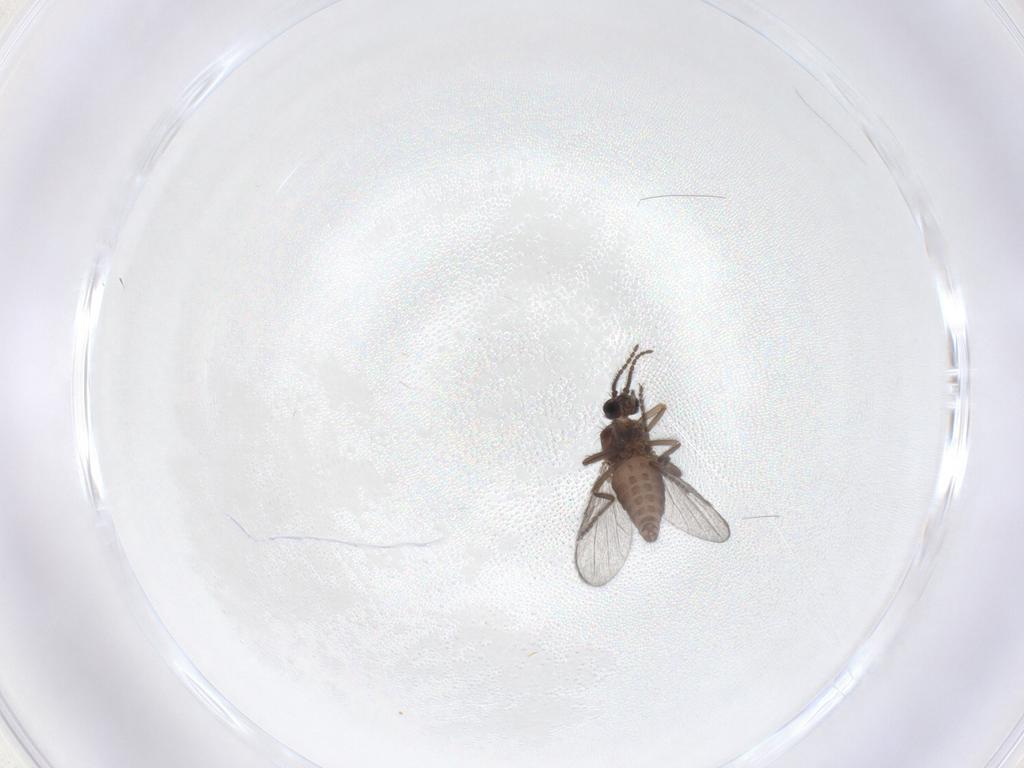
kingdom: Animalia
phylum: Arthropoda
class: Insecta
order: Diptera
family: Ceratopogonidae
